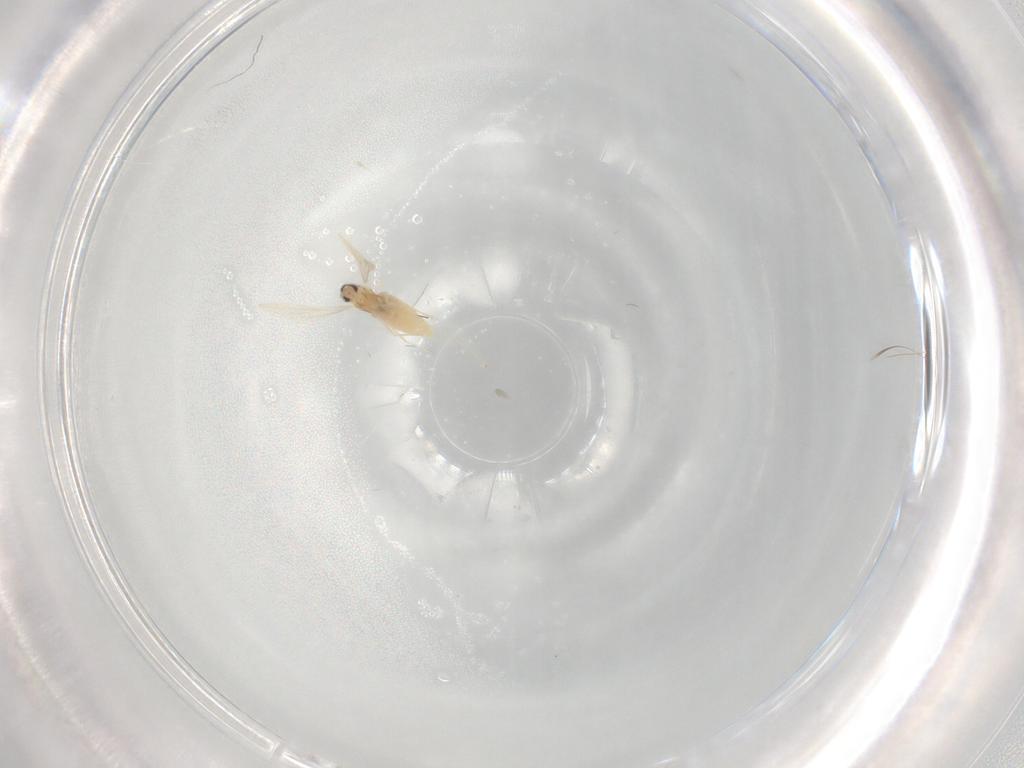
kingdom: Animalia
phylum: Arthropoda
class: Insecta
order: Diptera
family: Cecidomyiidae
